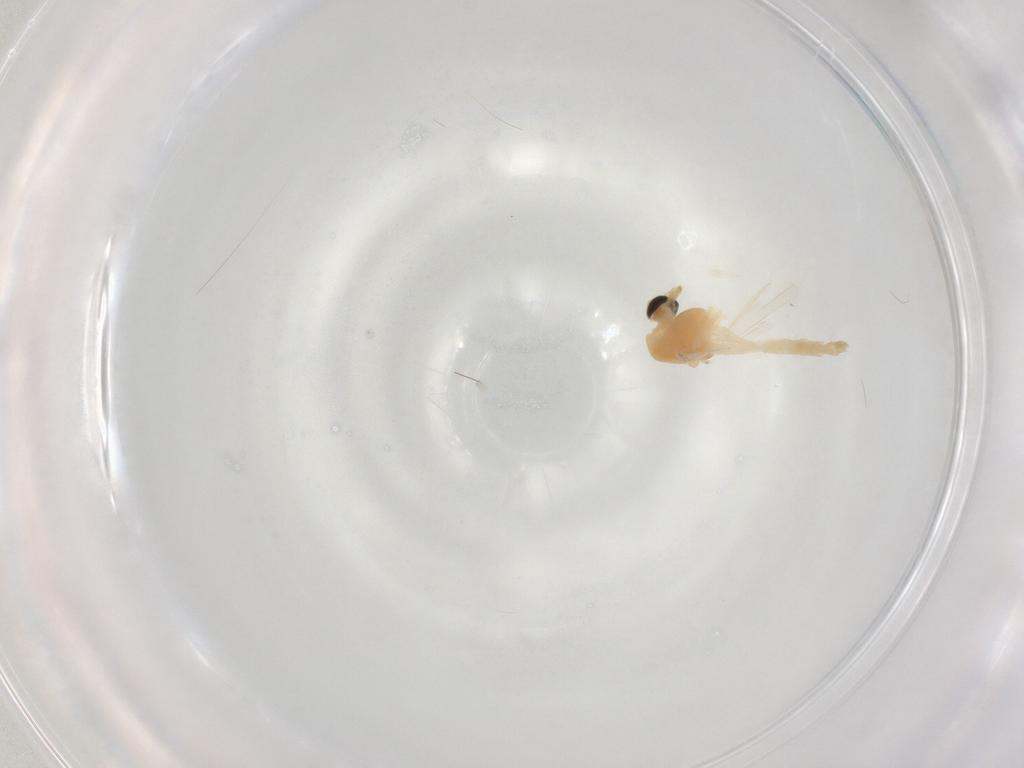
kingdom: Animalia
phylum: Arthropoda
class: Insecta
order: Diptera
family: Chironomidae
